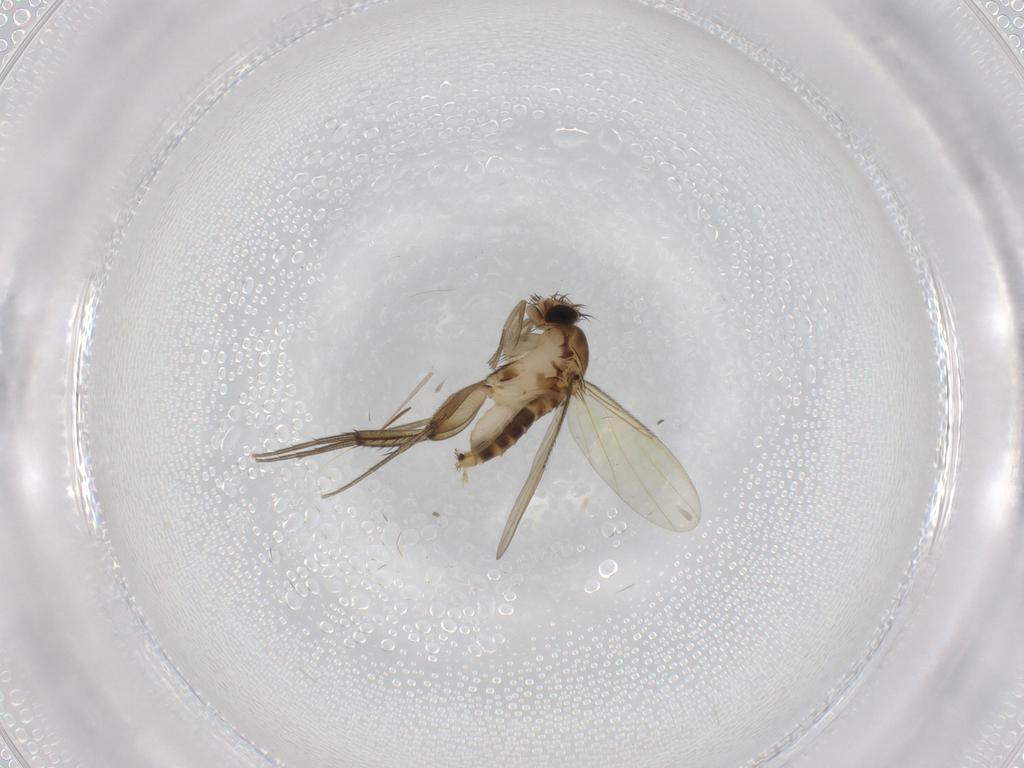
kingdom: Animalia
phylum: Arthropoda
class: Insecta
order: Diptera
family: Phoridae
